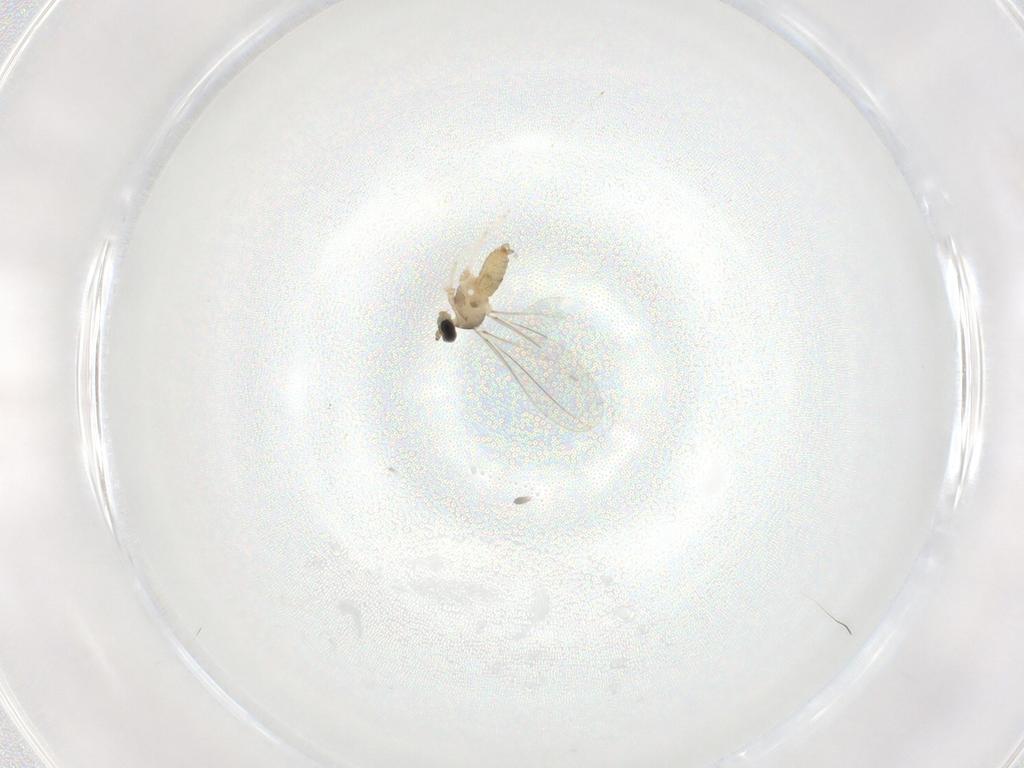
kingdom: Animalia
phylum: Arthropoda
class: Insecta
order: Diptera
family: Cecidomyiidae
